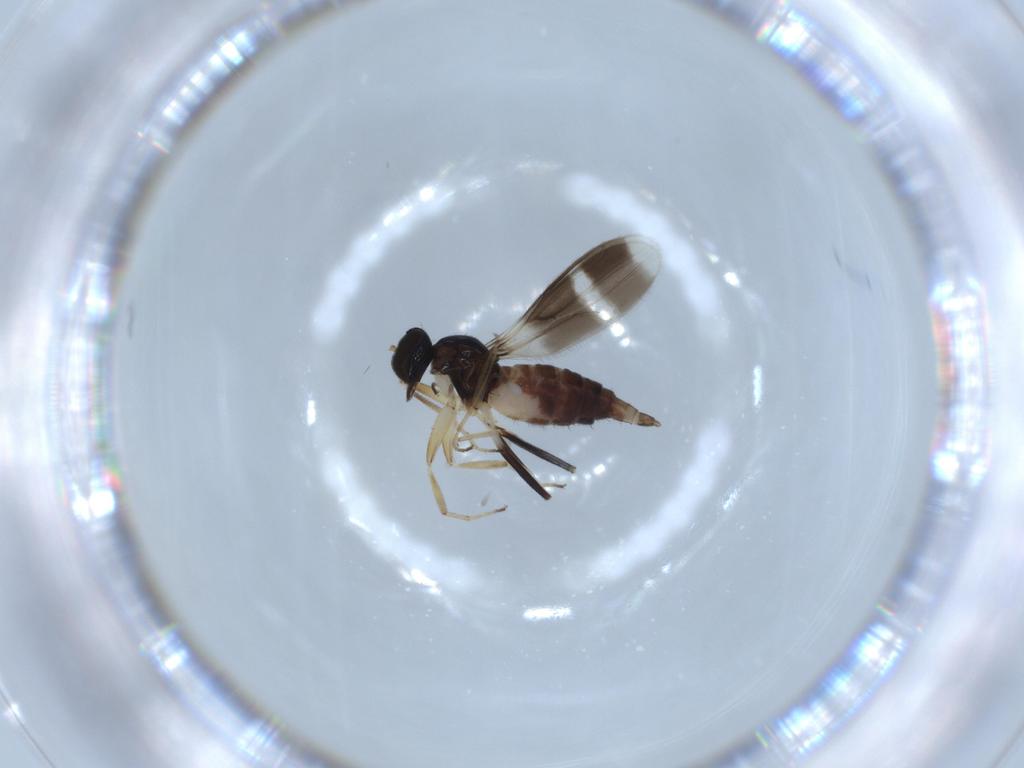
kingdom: Animalia
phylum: Arthropoda
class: Insecta
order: Diptera
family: Hybotidae
